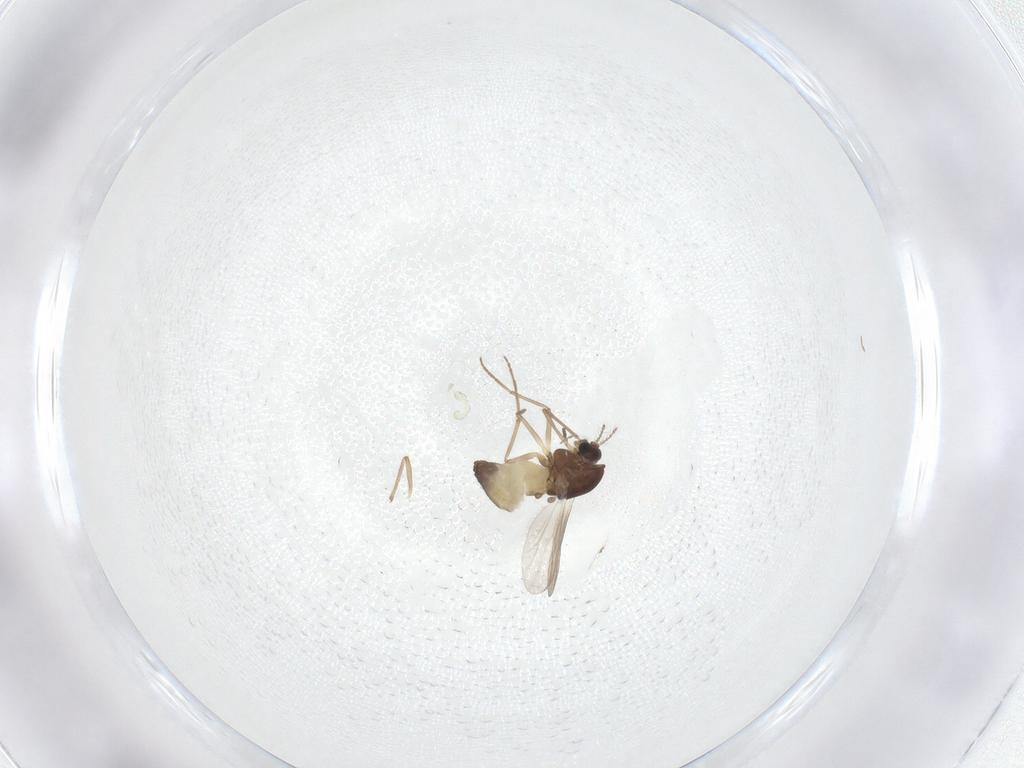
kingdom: Animalia
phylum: Arthropoda
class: Insecta
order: Diptera
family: Chironomidae
